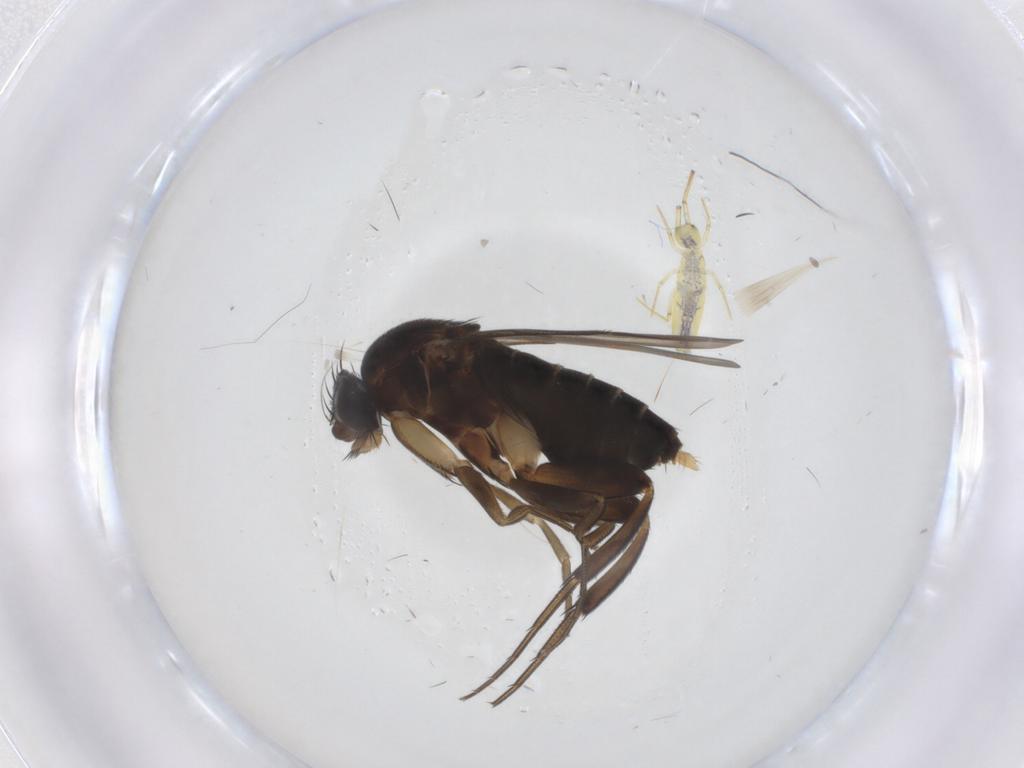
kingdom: Animalia
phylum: Arthropoda
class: Collembola
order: Entomobryomorpha
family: Entomobryidae
